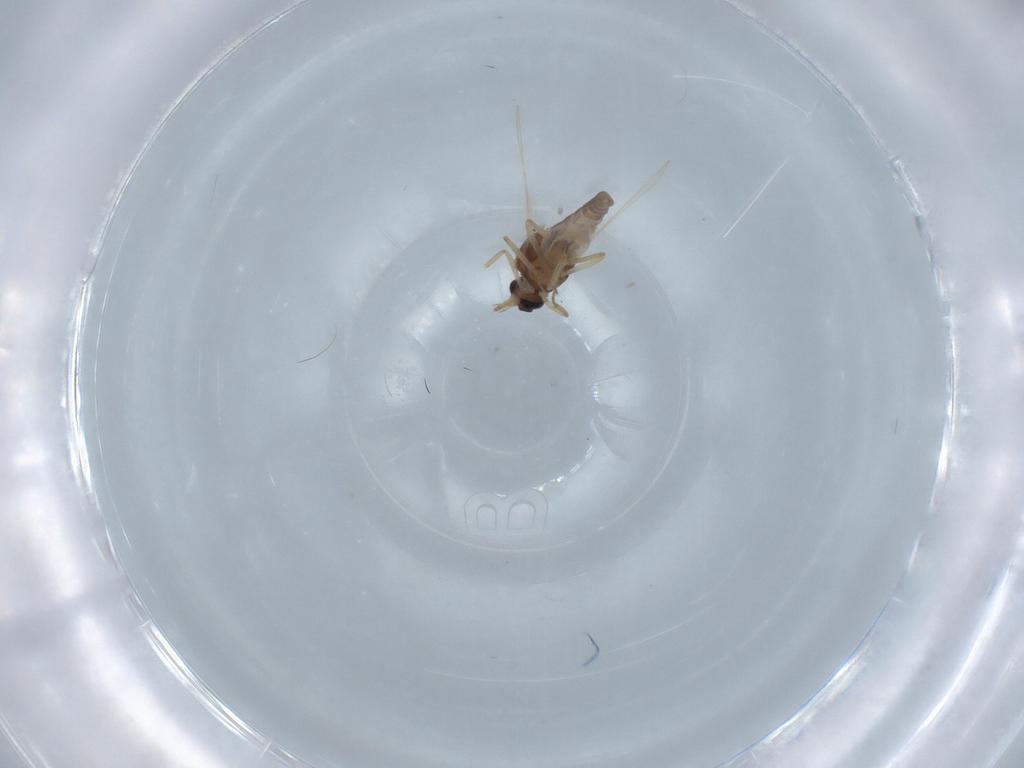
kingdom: Animalia
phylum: Arthropoda
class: Insecta
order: Diptera
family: Ceratopogonidae
